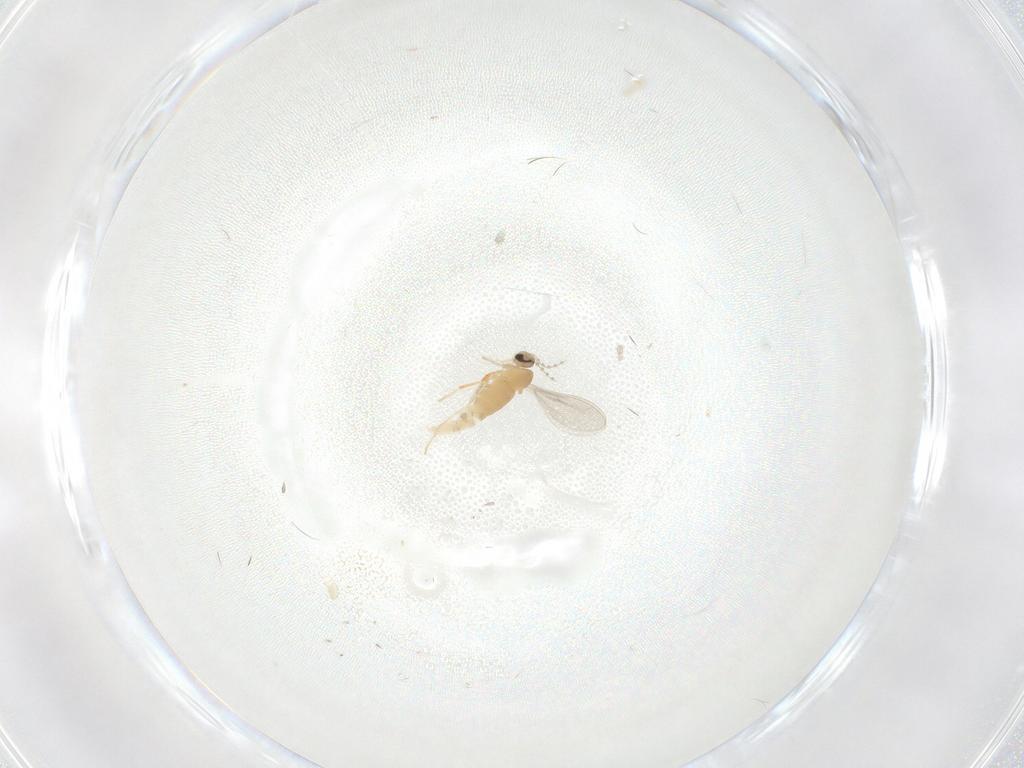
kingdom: Animalia
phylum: Arthropoda
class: Insecta
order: Diptera
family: Cecidomyiidae
